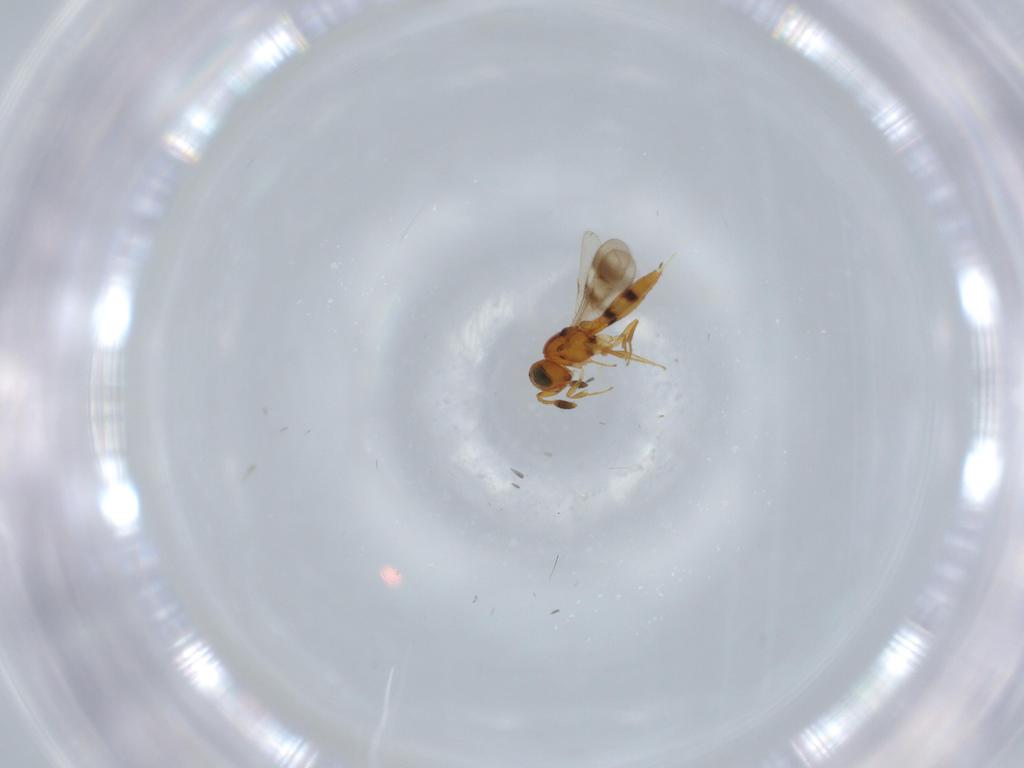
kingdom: Animalia
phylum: Arthropoda
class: Insecta
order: Hymenoptera
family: Scelionidae
